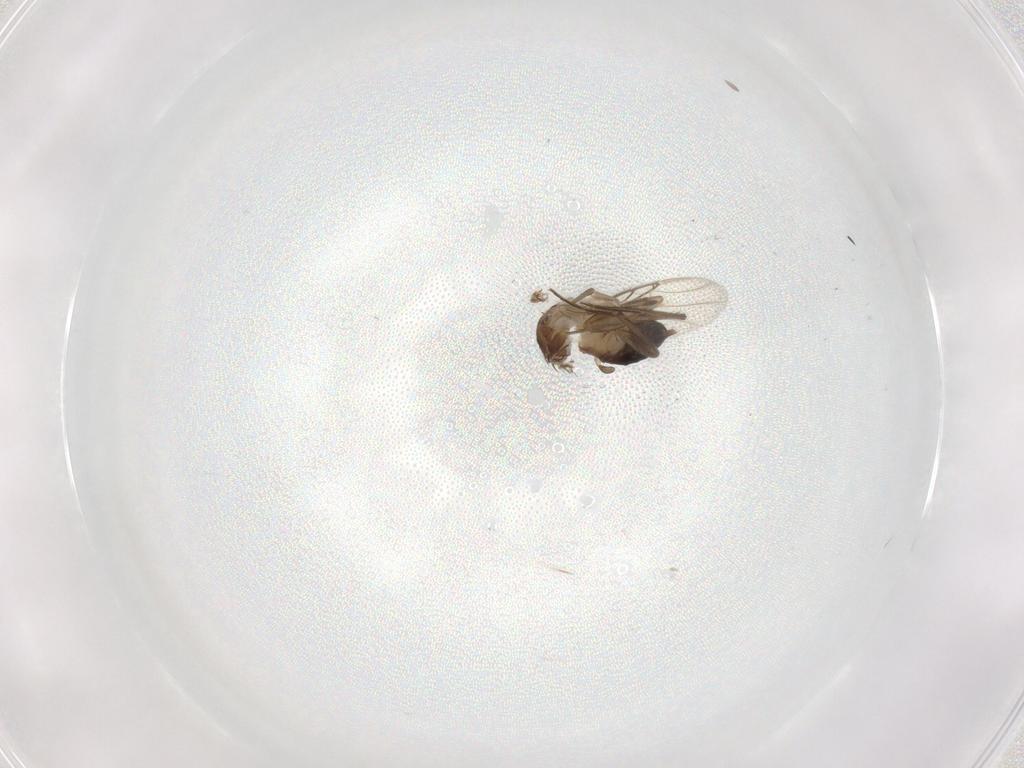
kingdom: Animalia
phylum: Arthropoda
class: Insecta
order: Diptera
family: Phoridae
